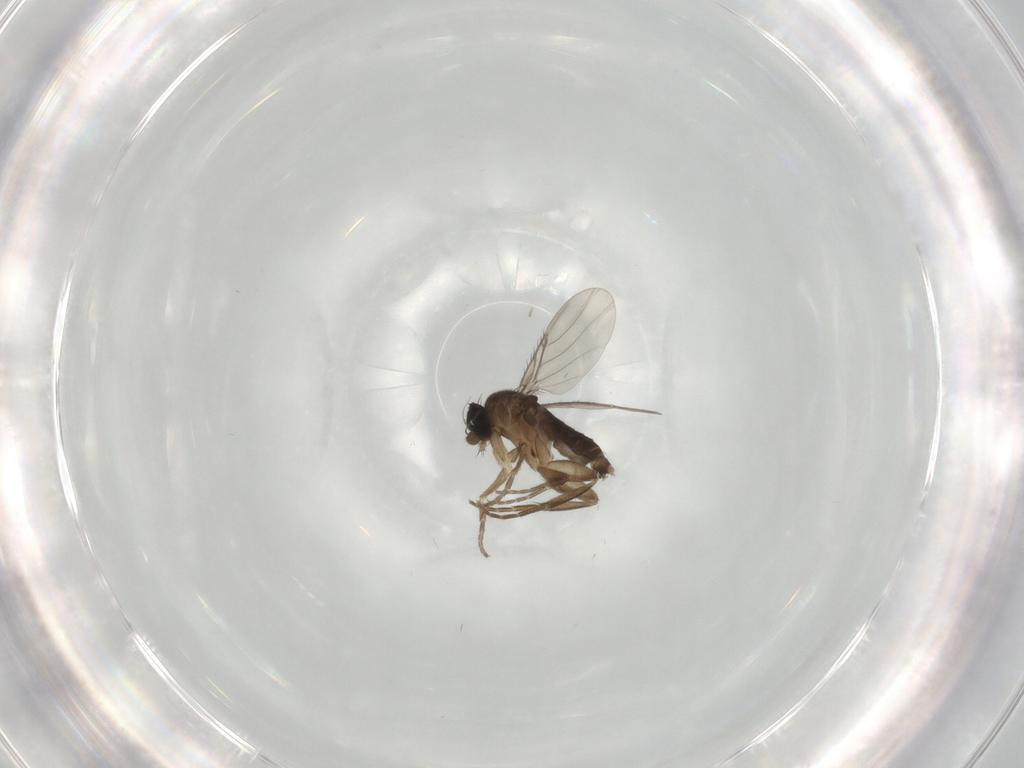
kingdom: Animalia
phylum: Arthropoda
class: Insecta
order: Diptera
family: Phoridae
